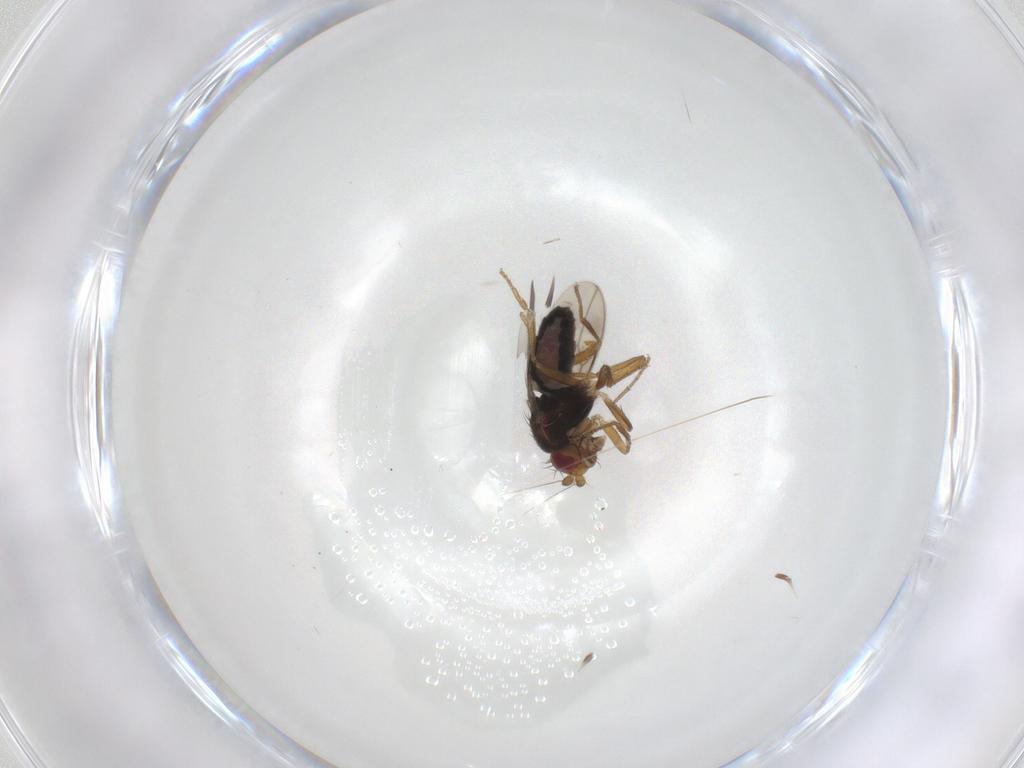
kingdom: Animalia
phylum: Arthropoda
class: Insecta
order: Diptera
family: Sphaeroceridae
